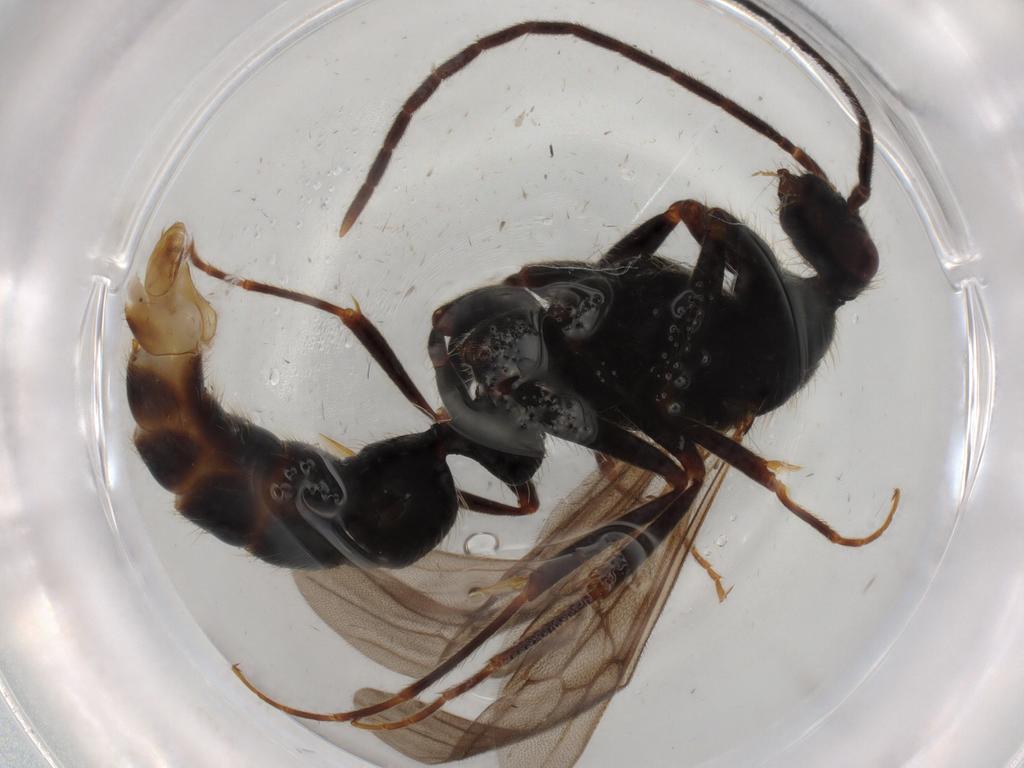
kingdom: Animalia
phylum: Arthropoda
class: Insecta
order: Hymenoptera
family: Formicidae
